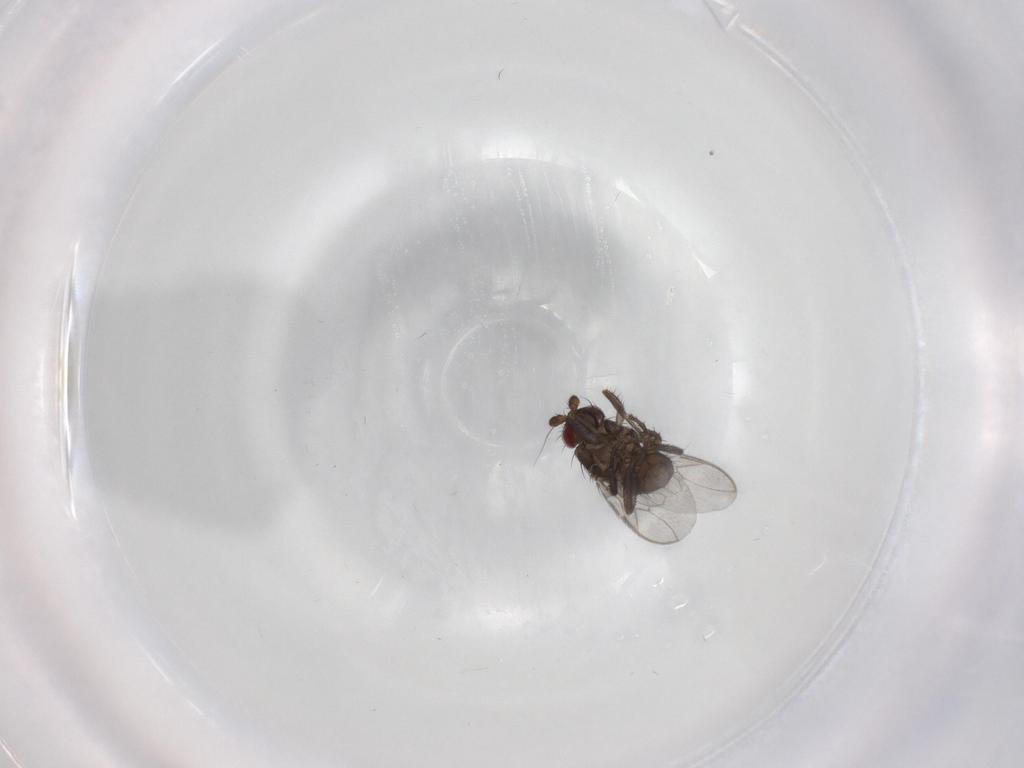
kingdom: Animalia
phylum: Arthropoda
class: Insecta
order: Diptera
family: Sphaeroceridae
